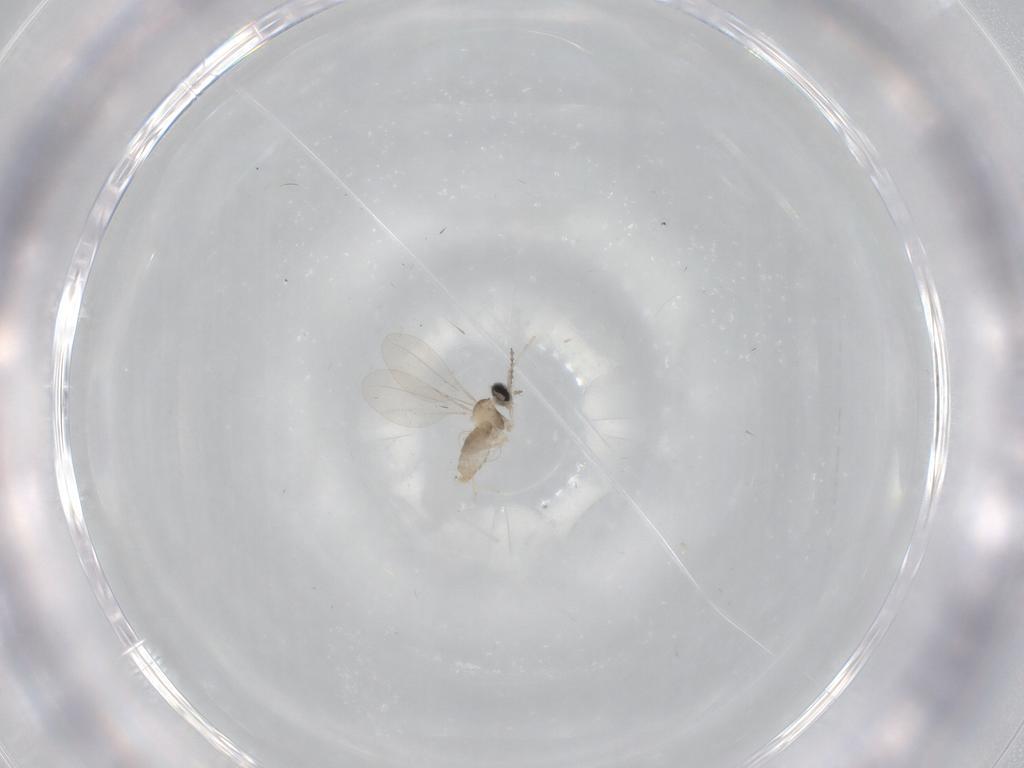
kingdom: Animalia
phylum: Arthropoda
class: Insecta
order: Diptera
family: Cecidomyiidae
